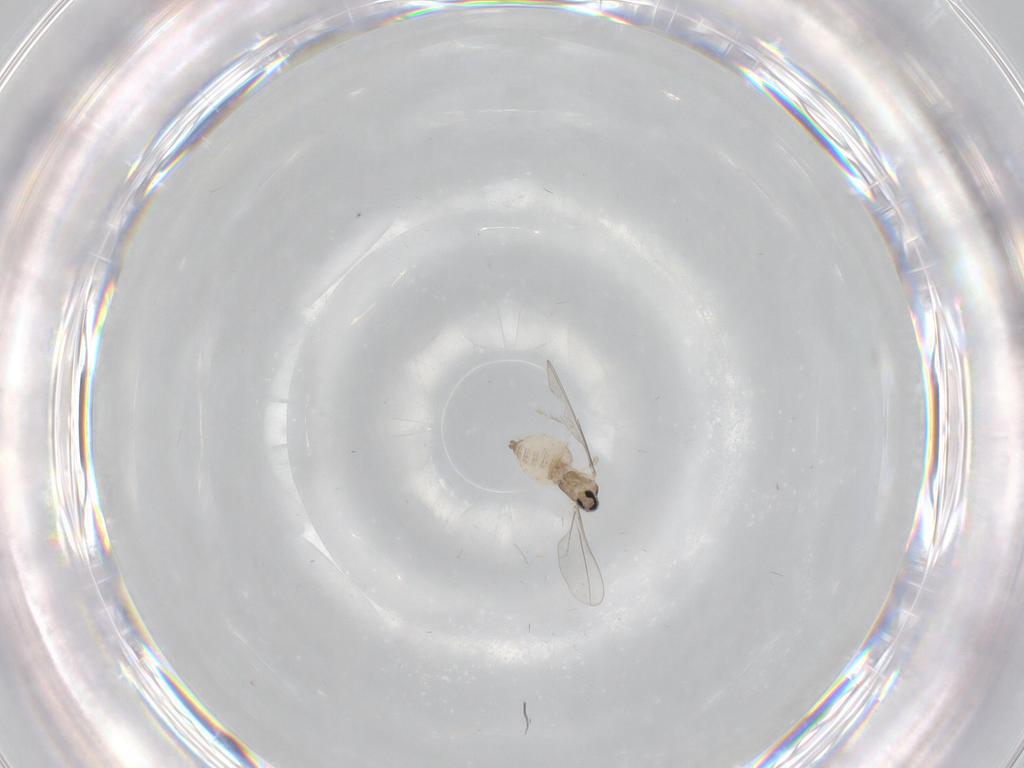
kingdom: Animalia
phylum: Arthropoda
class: Insecta
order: Diptera
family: Cecidomyiidae
